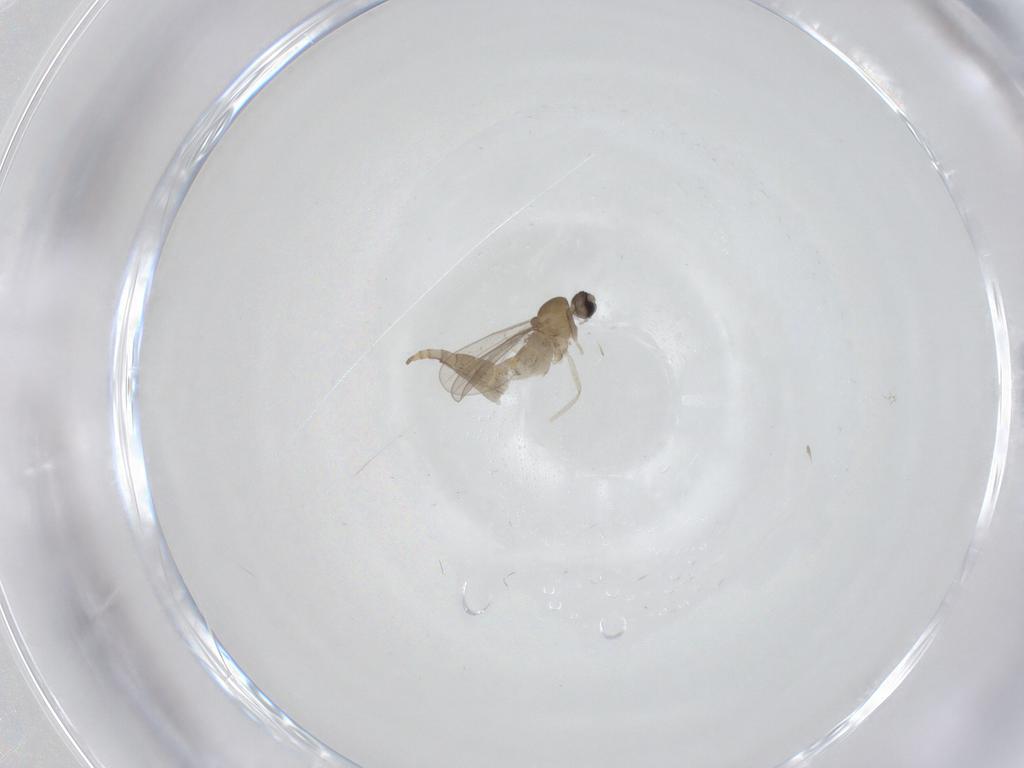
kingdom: Animalia
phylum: Arthropoda
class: Insecta
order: Diptera
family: Cecidomyiidae
